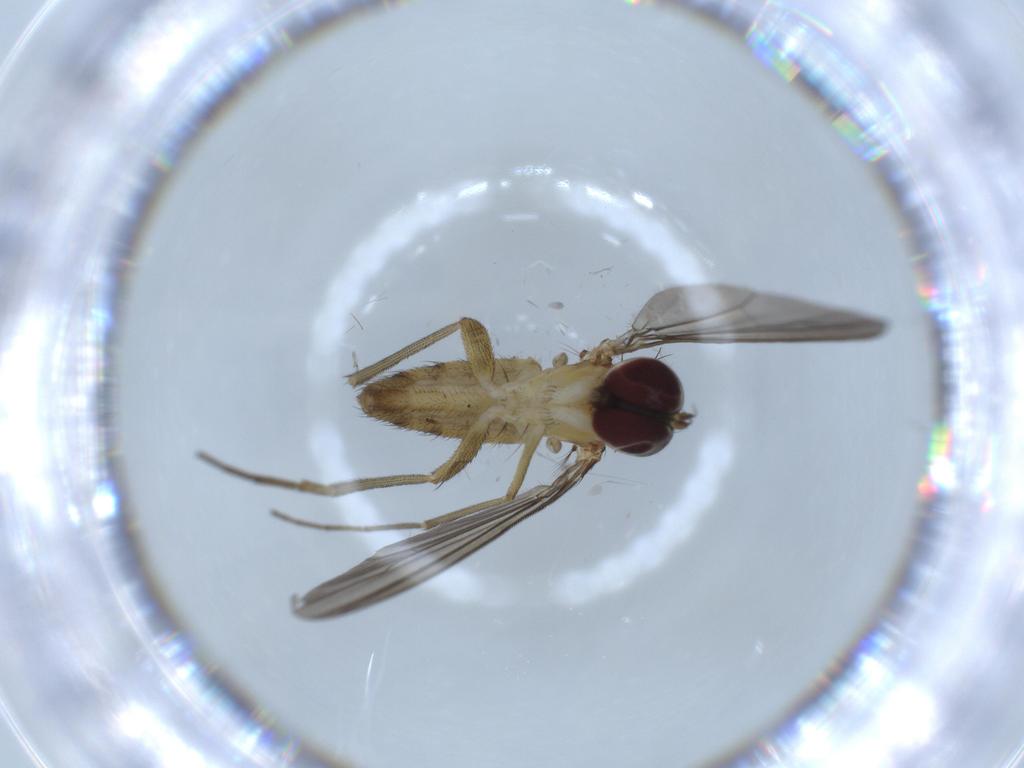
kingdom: Animalia
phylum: Arthropoda
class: Insecta
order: Diptera
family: Dolichopodidae
